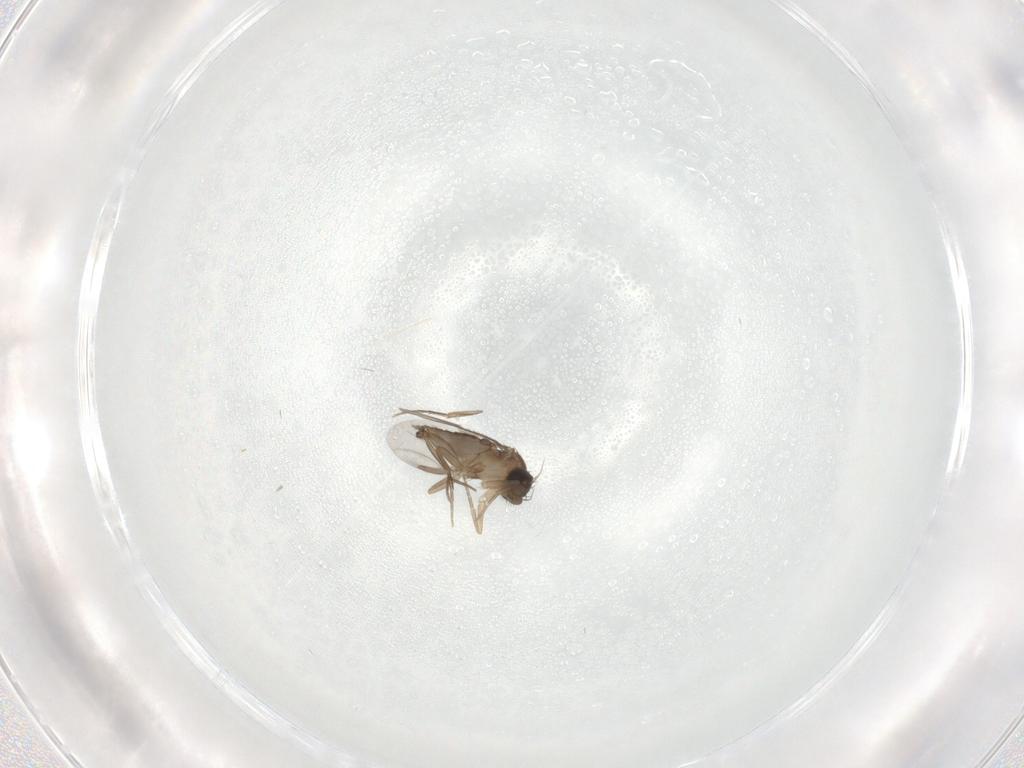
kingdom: Animalia
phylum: Arthropoda
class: Insecta
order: Diptera
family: Phoridae
